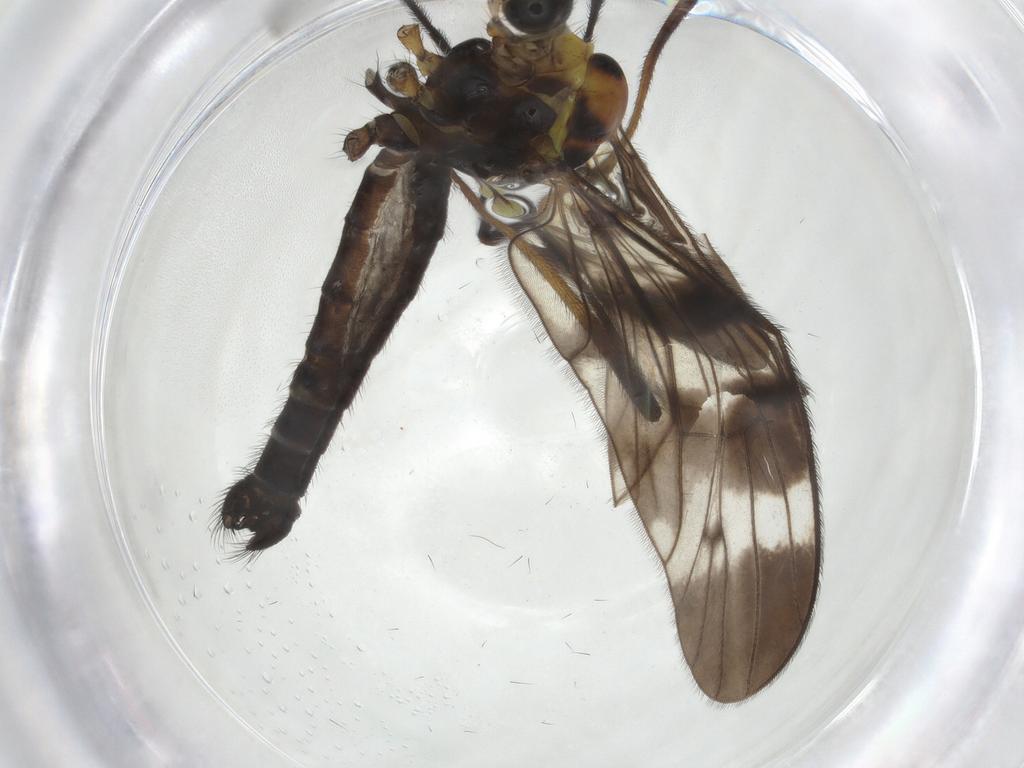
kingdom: Animalia
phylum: Arthropoda
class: Insecta
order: Diptera
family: Limoniidae
